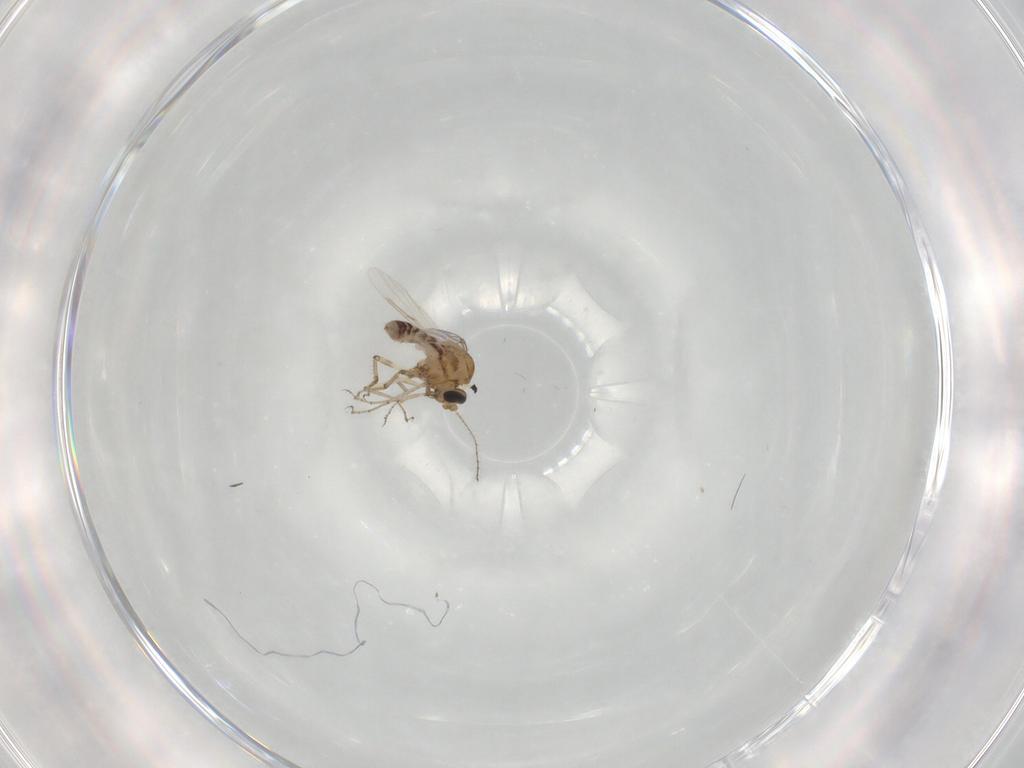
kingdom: Animalia
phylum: Arthropoda
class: Insecta
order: Diptera
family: Ceratopogonidae
